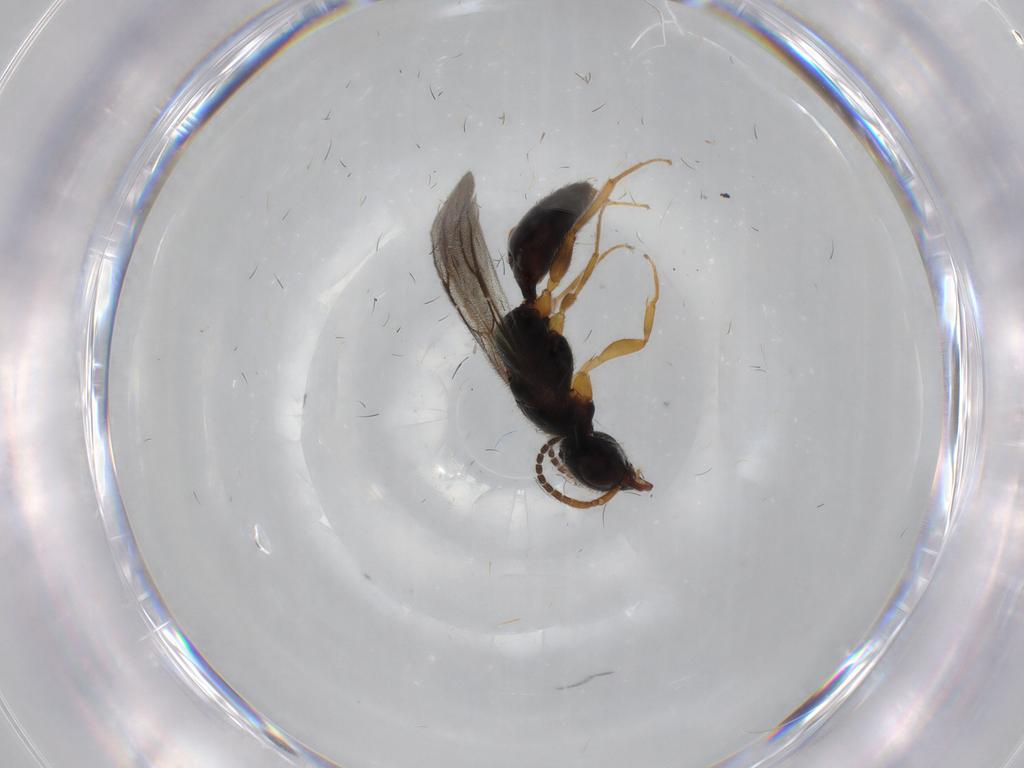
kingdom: Animalia
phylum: Arthropoda
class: Insecta
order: Hymenoptera
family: Bethylidae
